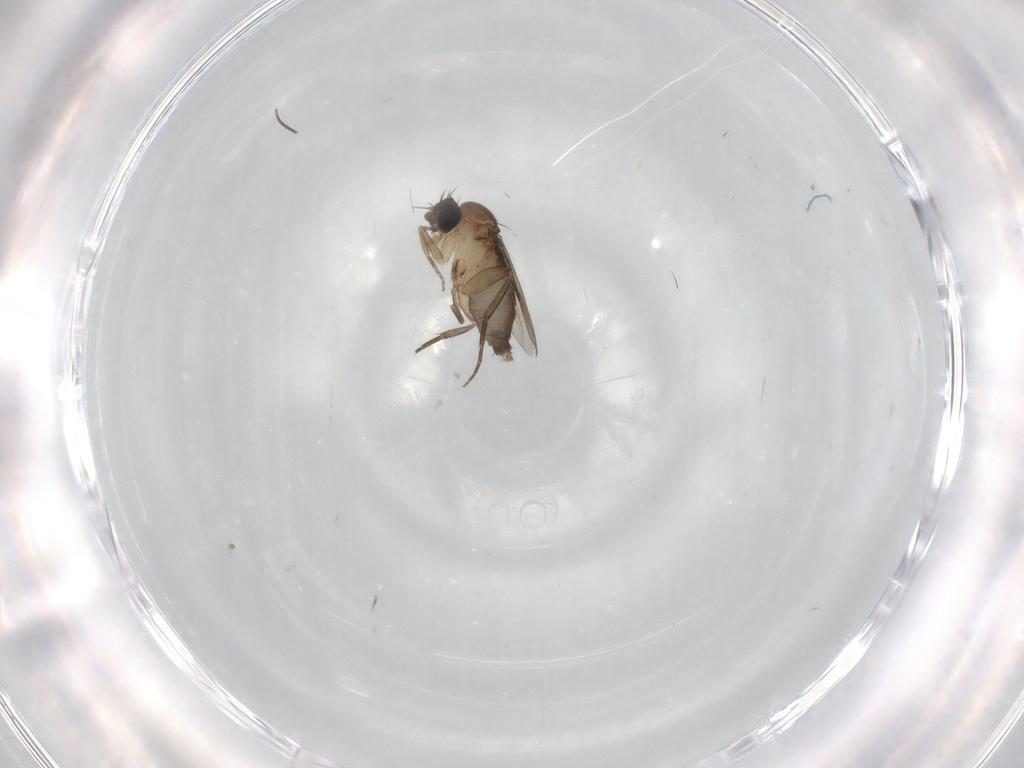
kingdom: Animalia
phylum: Arthropoda
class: Insecta
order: Diptera
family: Phoridae
